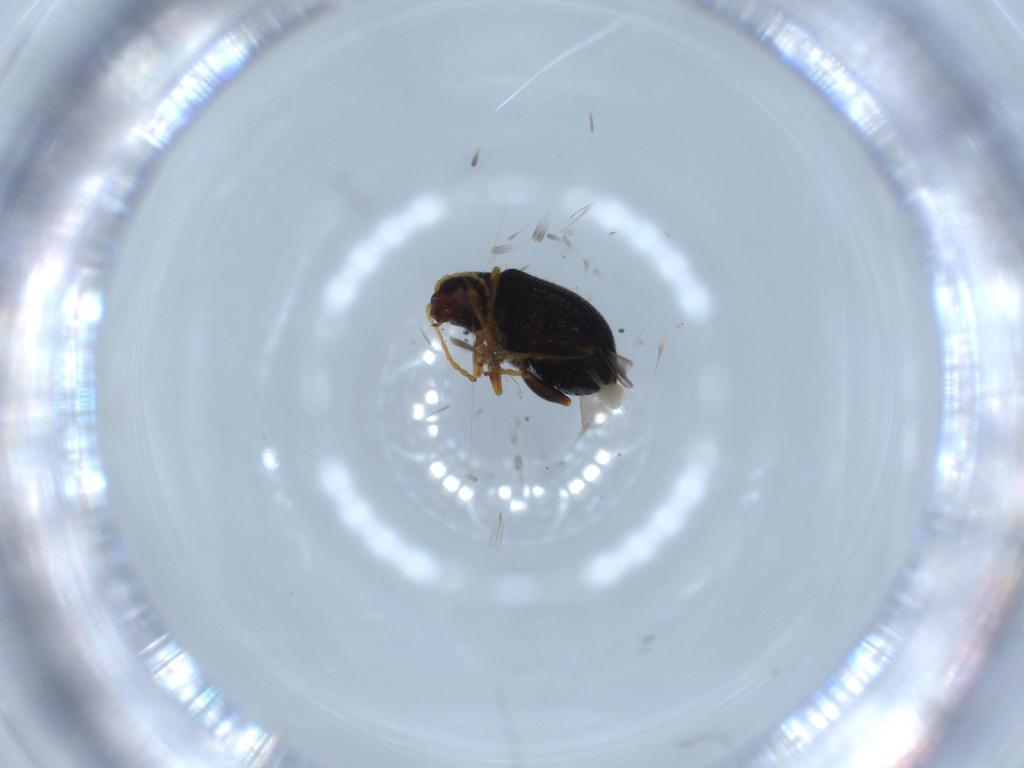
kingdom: Animalia
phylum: Arthropoda
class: Insecta
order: Coleoptera
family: Chrysomelidae
